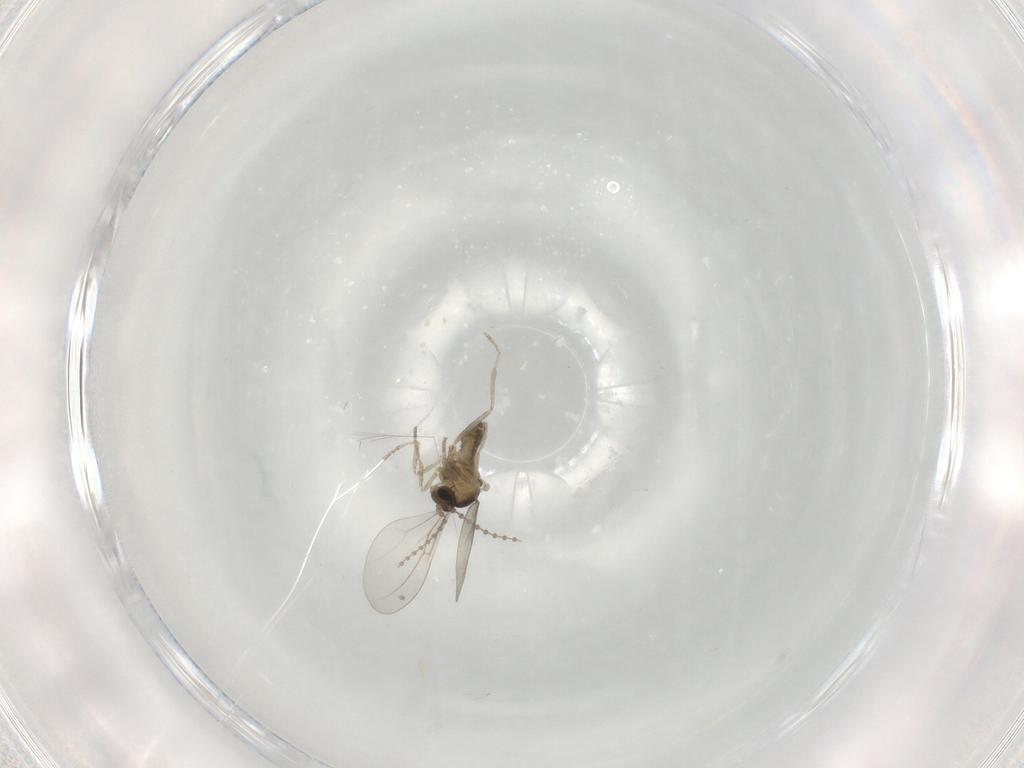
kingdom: Animalia
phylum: Arthropoda
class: Insecta
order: Diptera
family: Cecidomyiidae
